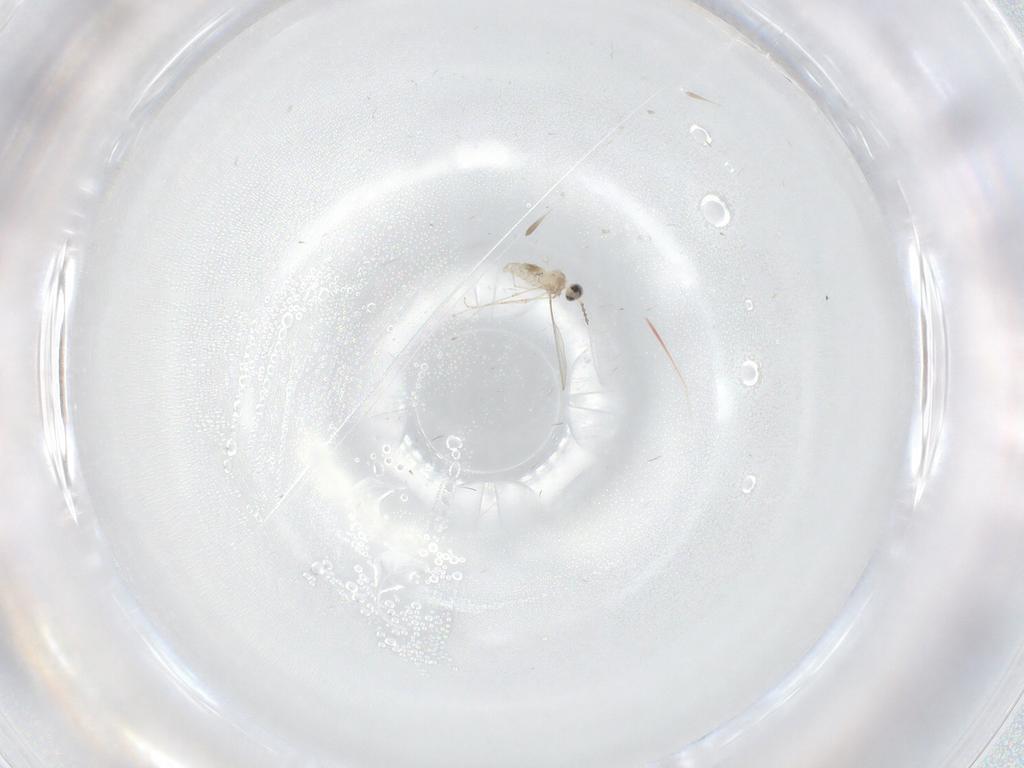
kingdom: Animalia
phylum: Arthropoda
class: Insecta
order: Diptera
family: Cecidomyiidae
